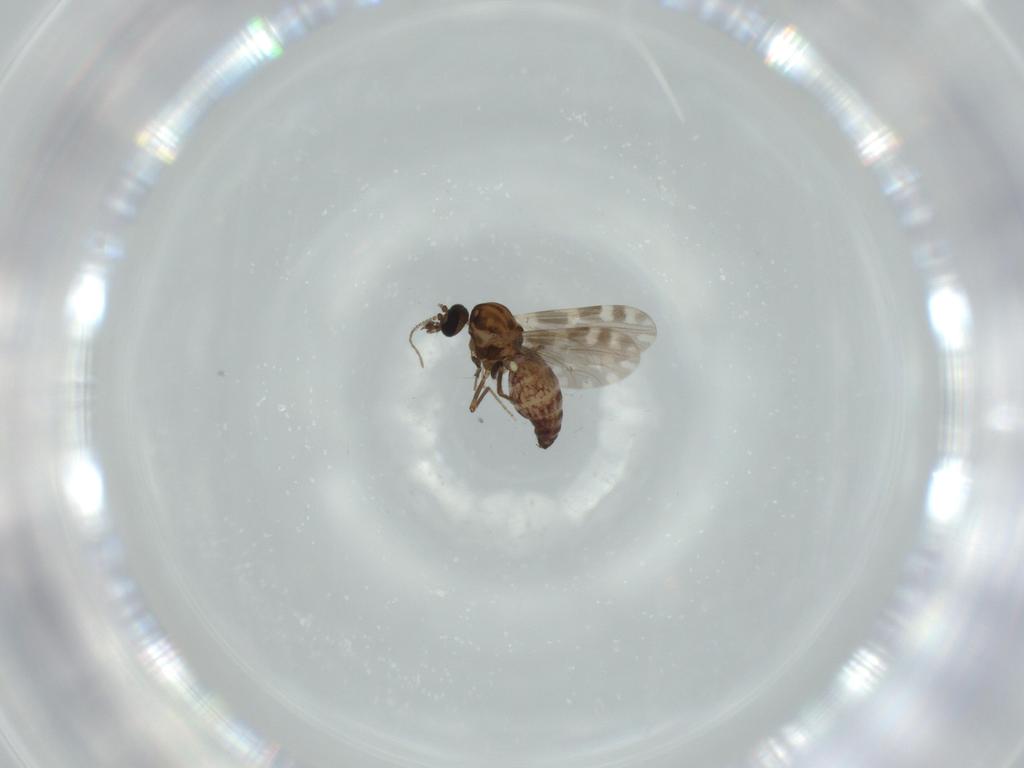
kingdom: Animalia
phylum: Arthropoda
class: Insecta
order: Diptera
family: Ceratopogonidae
